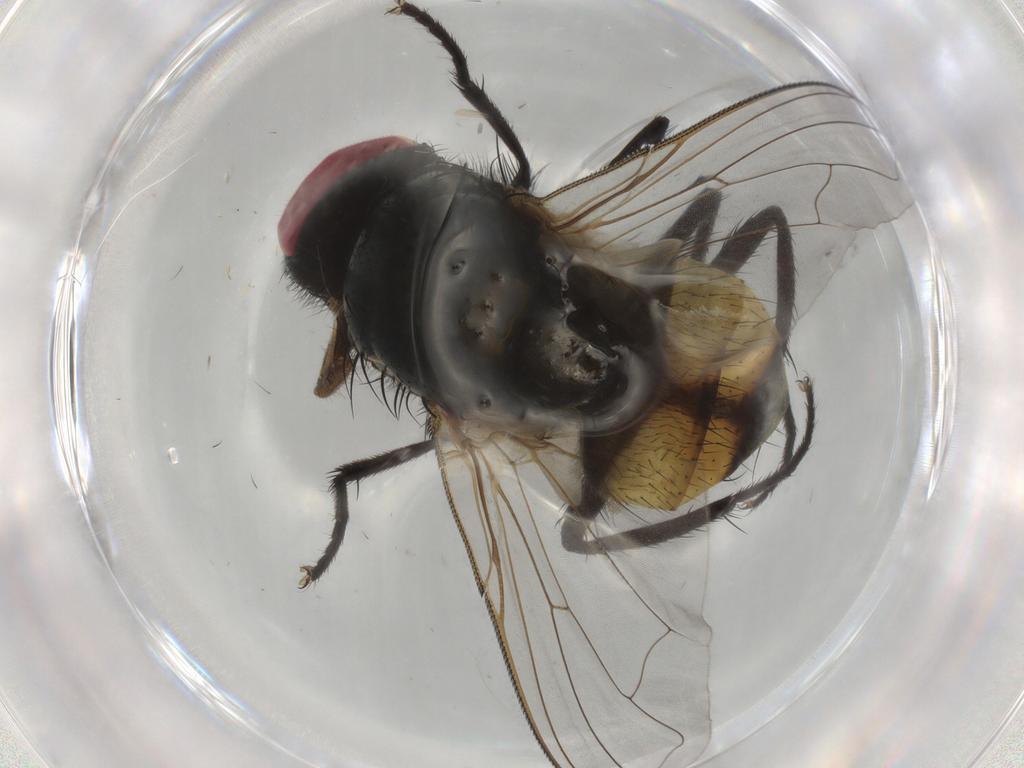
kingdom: Animalia
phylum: Arthropoda
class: Insecta
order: Diptera
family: Muscidae
